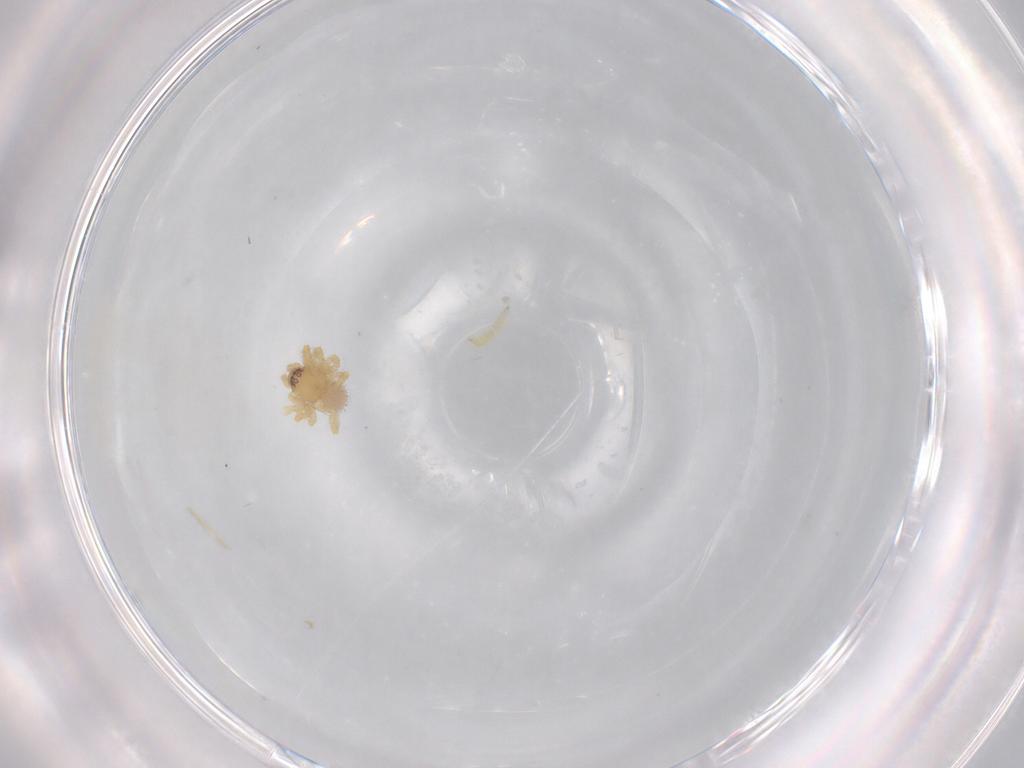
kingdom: Animalia
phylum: Arthropoda
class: Arachnida
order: Araneae
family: Theridiidae
